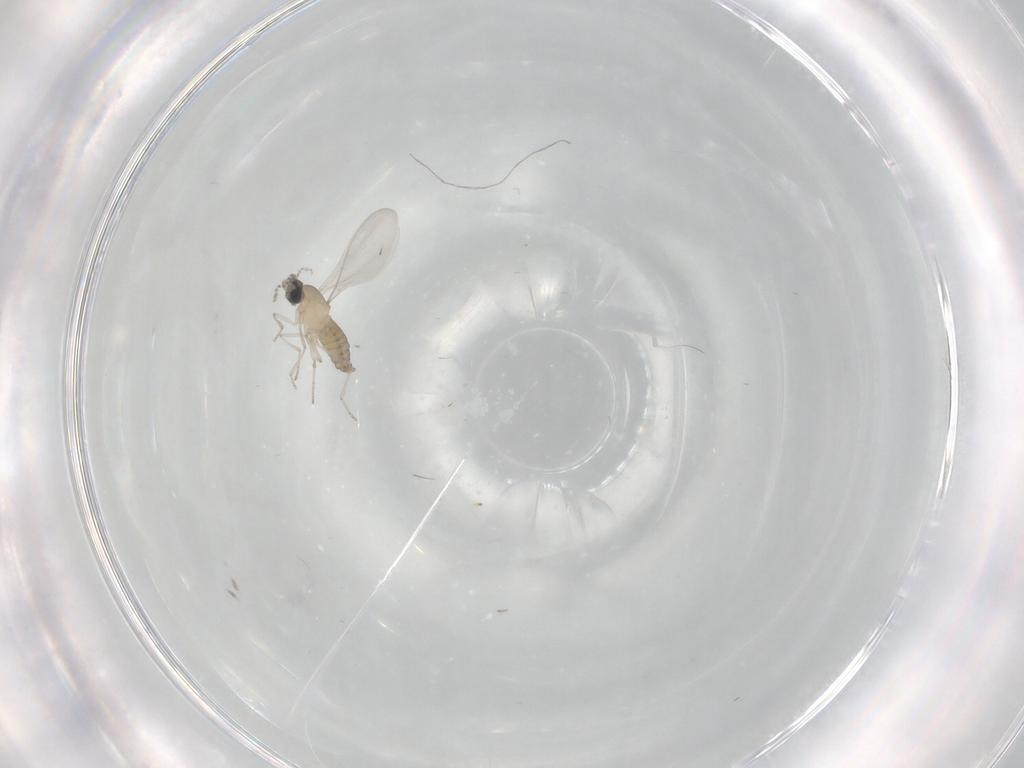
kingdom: Animalia
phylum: Arthropoda
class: Insecta
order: Diptera
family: Cecidomyiidae
